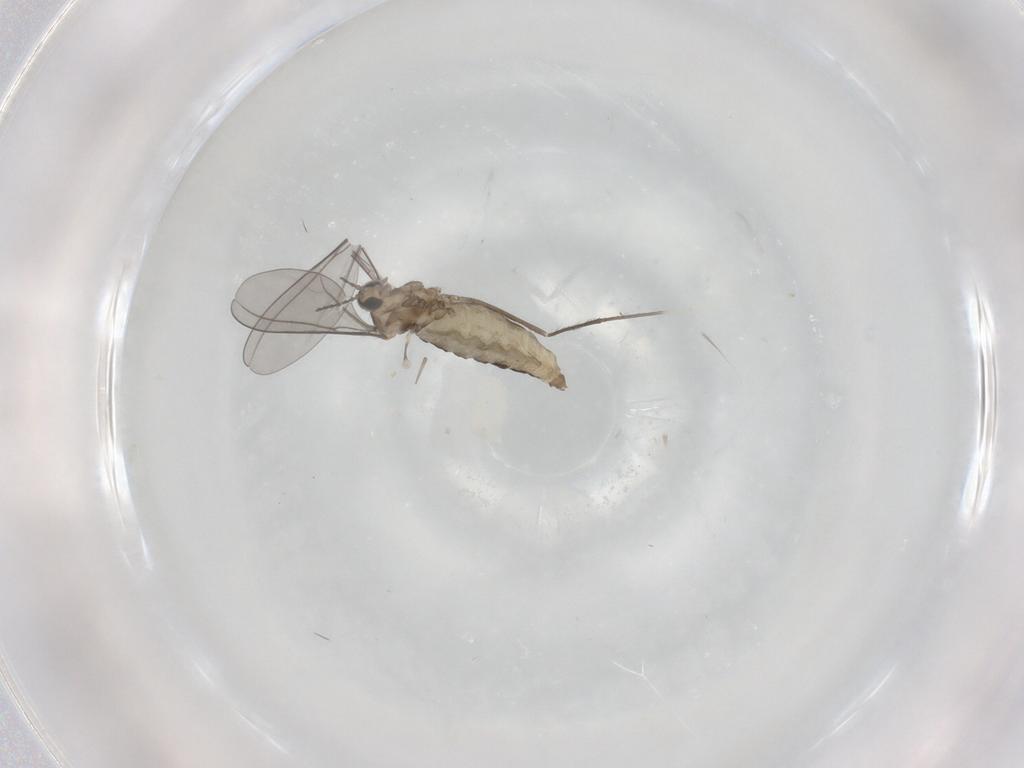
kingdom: Animalia
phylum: Arthropoda
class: Insecta
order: Diptera
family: Cecidomyiidae
